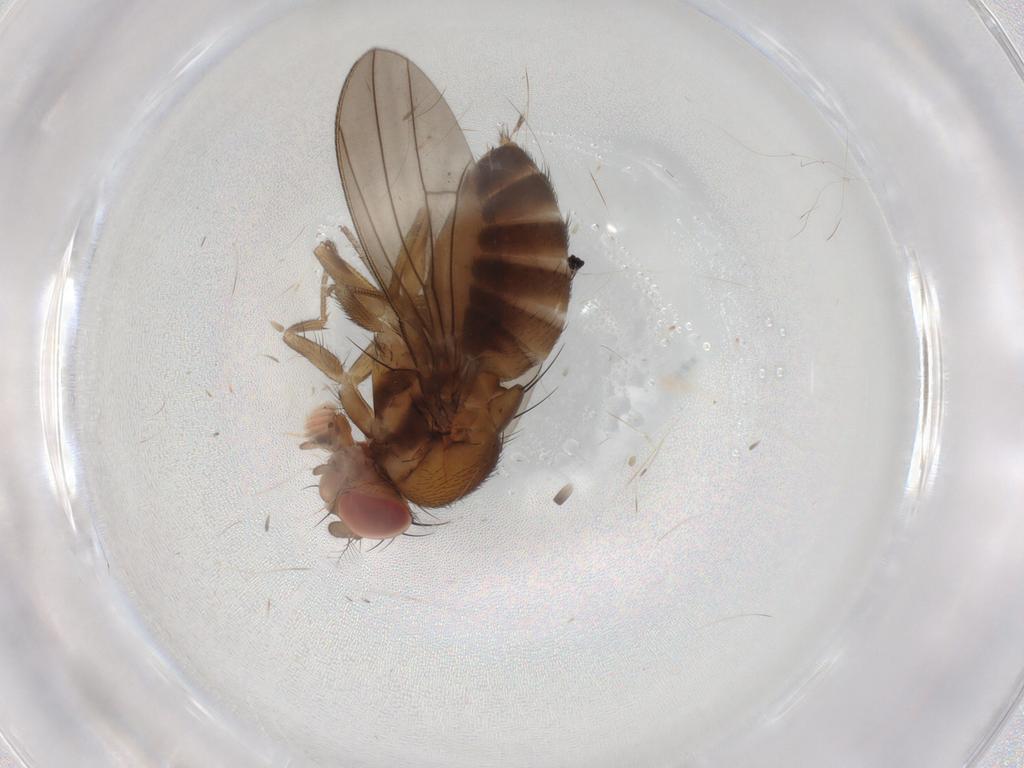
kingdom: Animalia
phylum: Arthropoda
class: Insecta
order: Diptera
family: Drosophilidae
